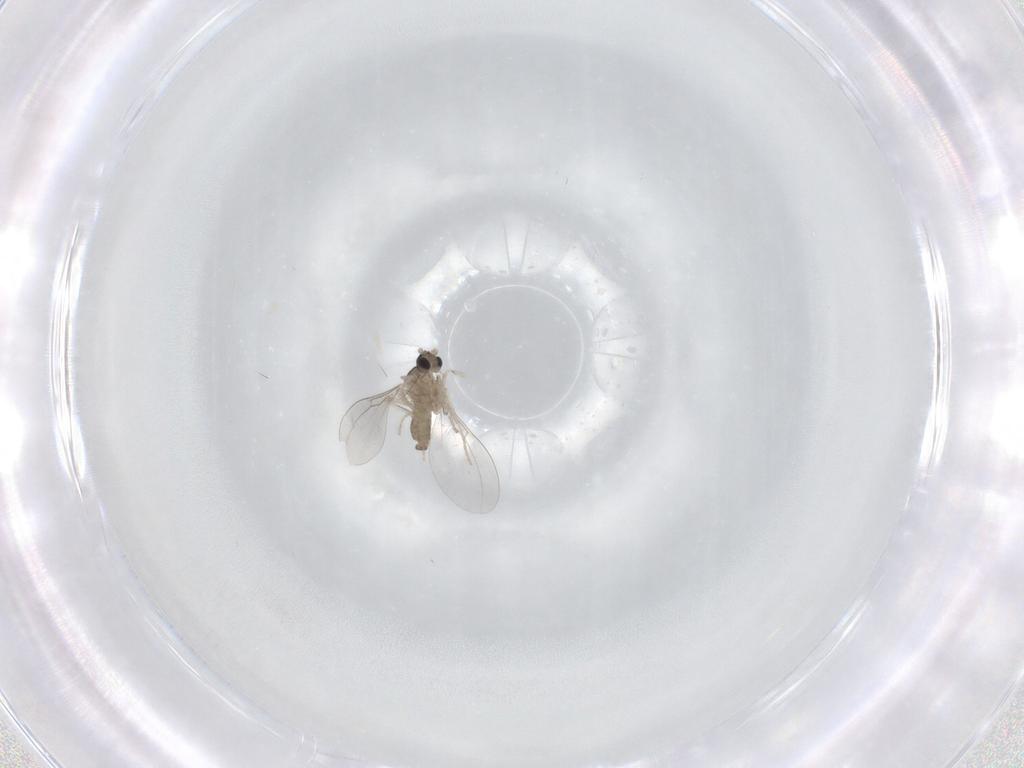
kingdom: Animalia
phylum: Arthropoda
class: Insecta
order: Diptera
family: Cecidomyiidae
